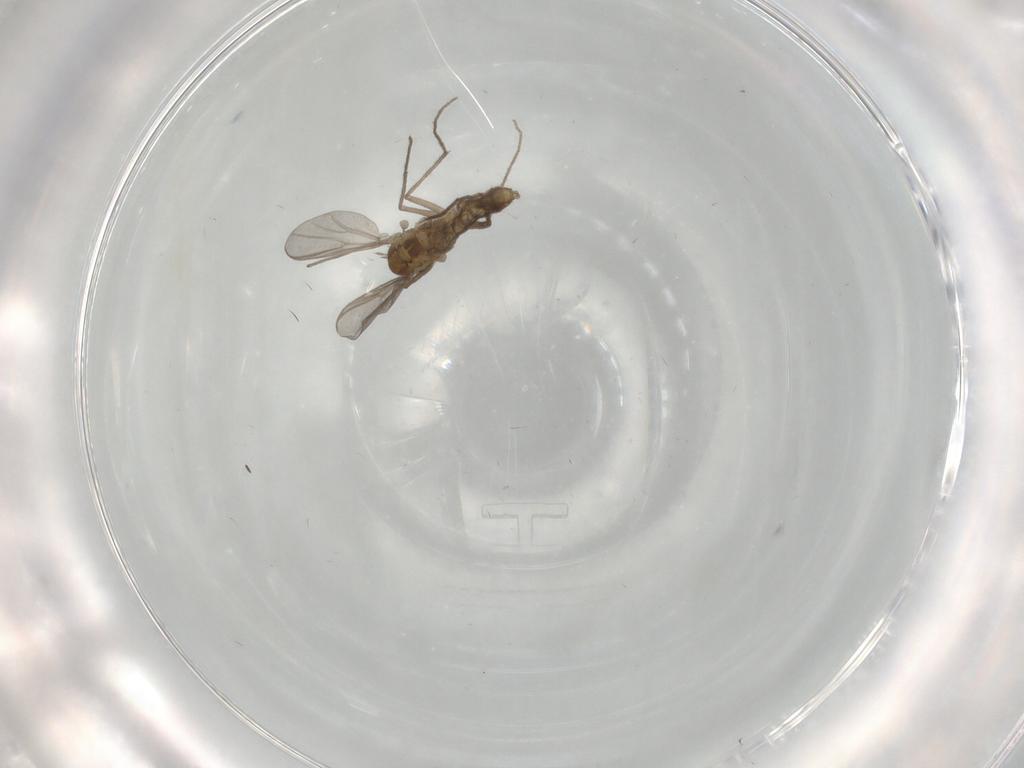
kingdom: Animalia
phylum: Arthropoda
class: Insecta
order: Diptera
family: Chironomidae
